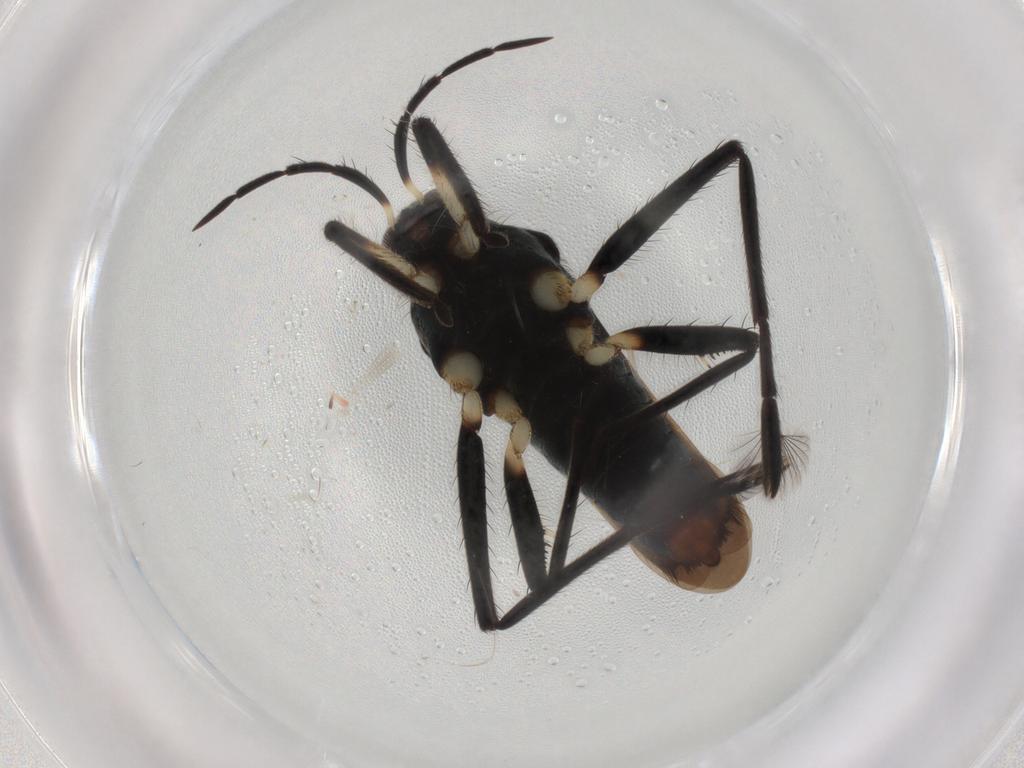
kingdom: Animalia
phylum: Arthropoda
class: Insecta
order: Hemiptera
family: Veliidae
